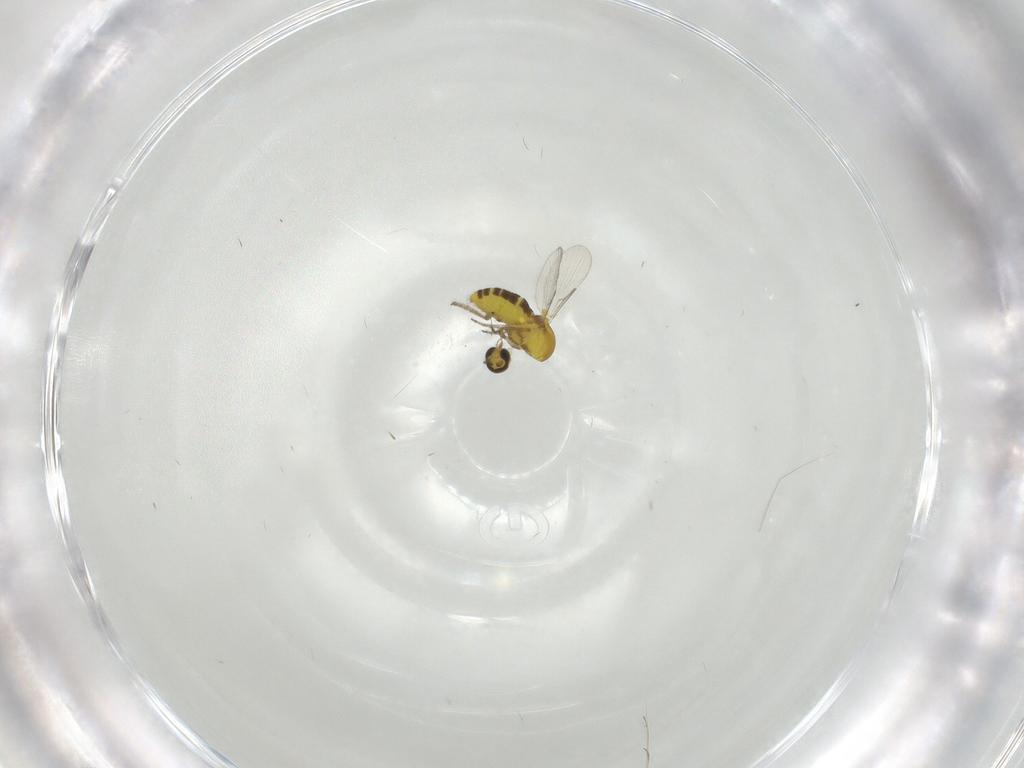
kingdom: Animalia
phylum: Arthropoda
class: Insecta
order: Diptera
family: Ceratopogonidae
